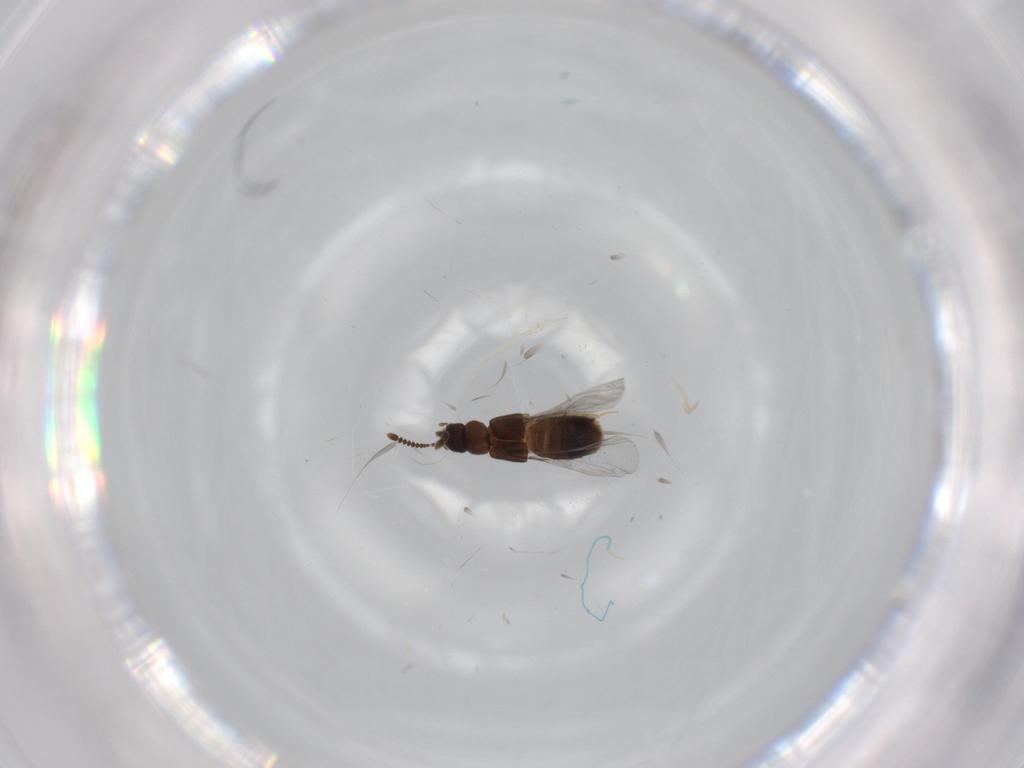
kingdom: Animalia
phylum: Arthropoda
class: Insecta
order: Coleoptera
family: Staphylinidae
